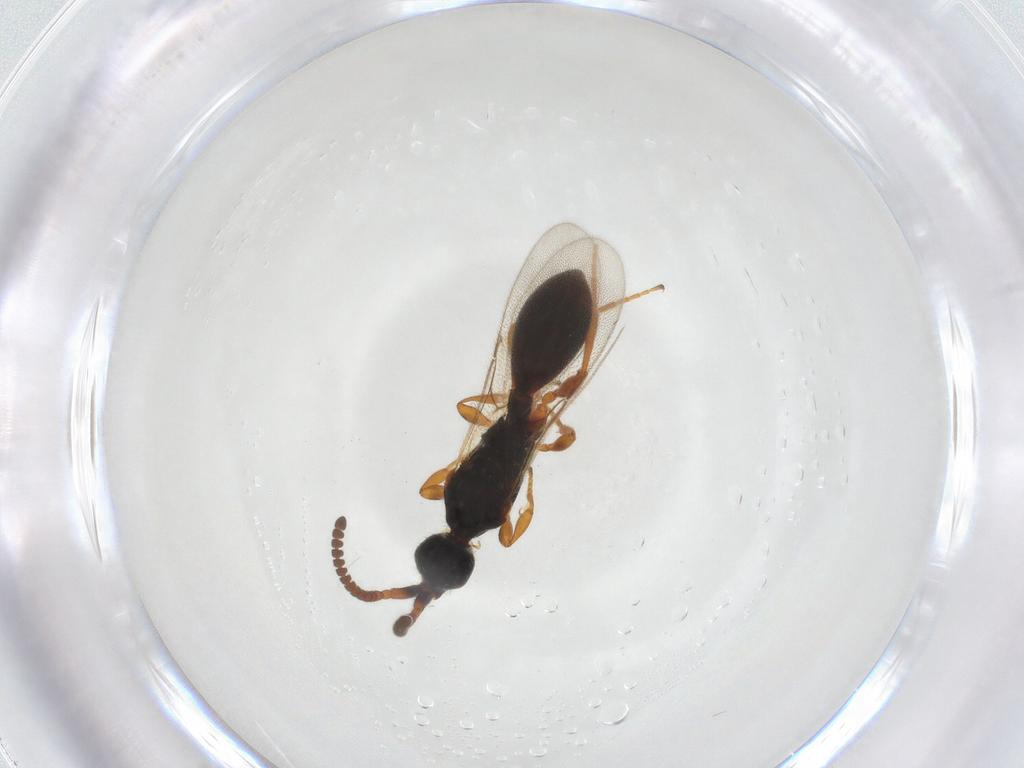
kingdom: Animalia
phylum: Arthropoda
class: Insecta
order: Hymenoptera
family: Diapriidae
